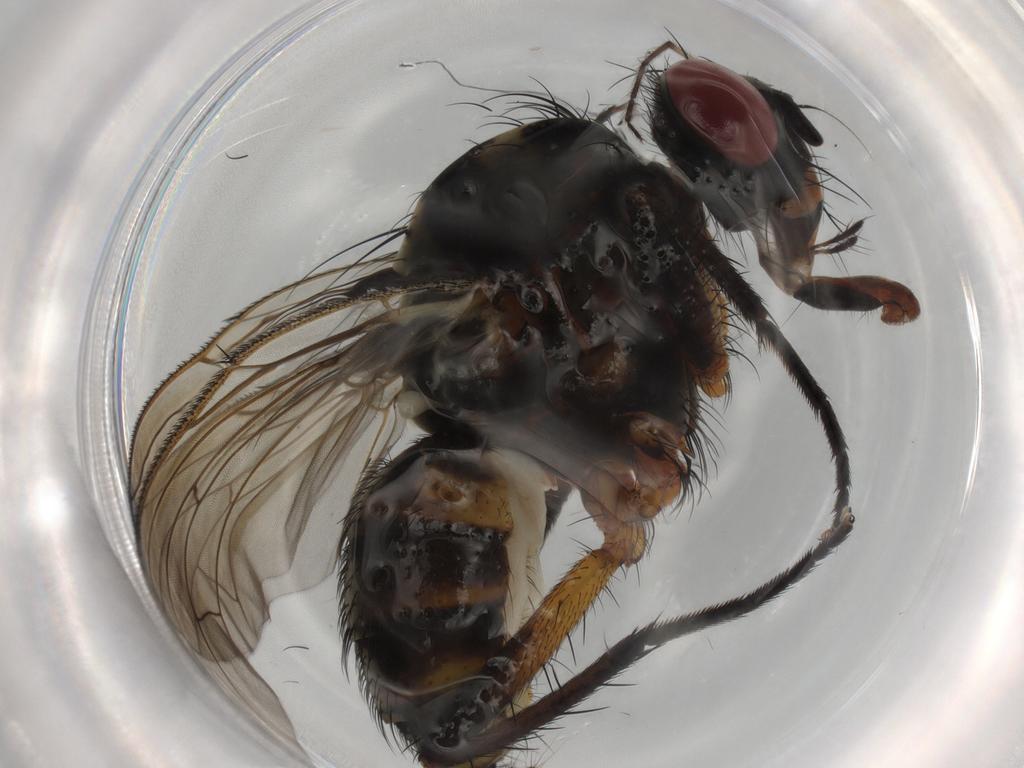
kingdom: Animalia
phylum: Arthropoda
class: Insecta
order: Diptera
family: Anthomyiidae
